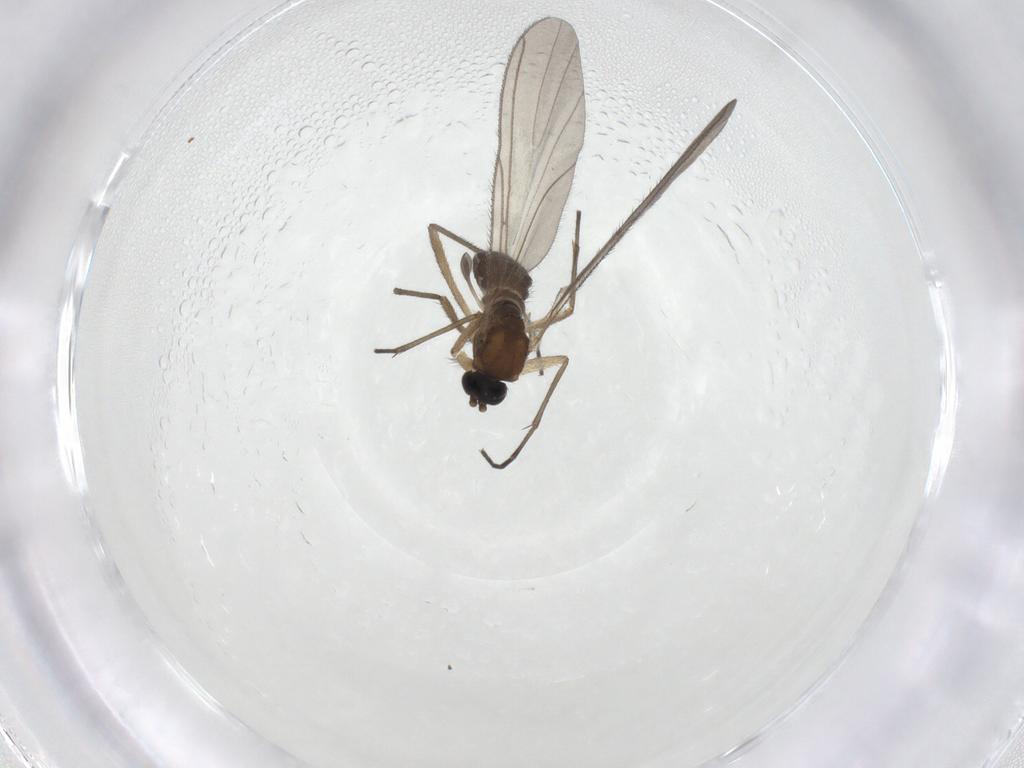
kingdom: Animalia
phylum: Arthropoda
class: Insecta
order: Diptera
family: Sciaridae
